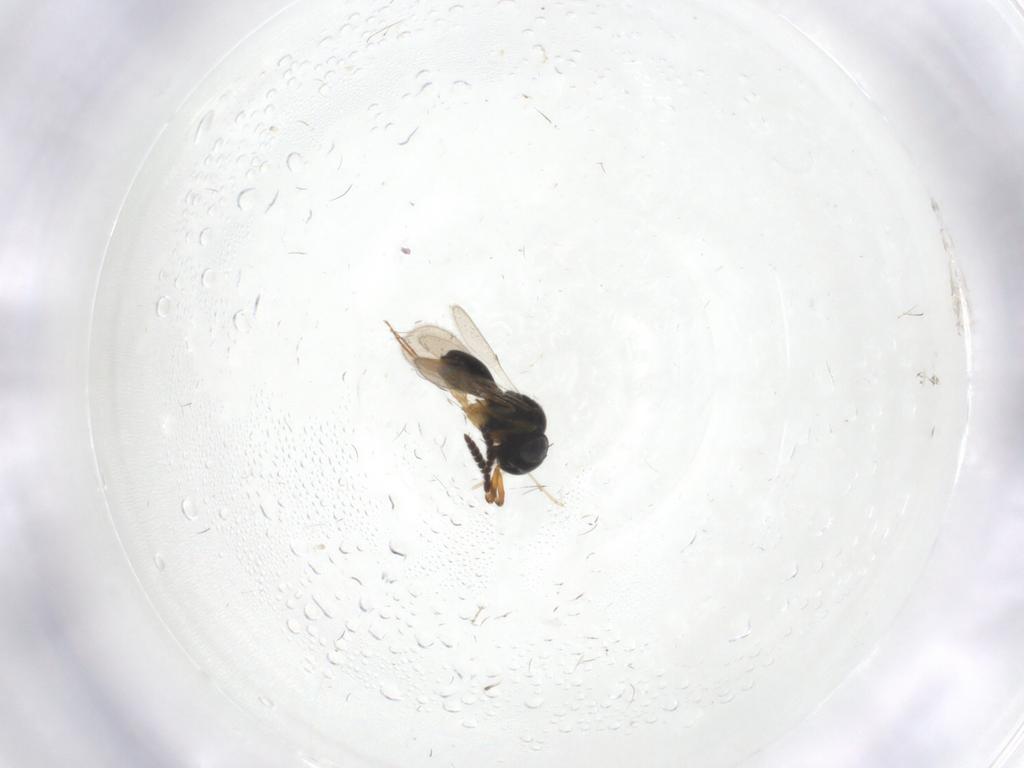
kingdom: Animalia
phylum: Arthropoda
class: Insecta
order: Hymenoptera
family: Scelionidae
